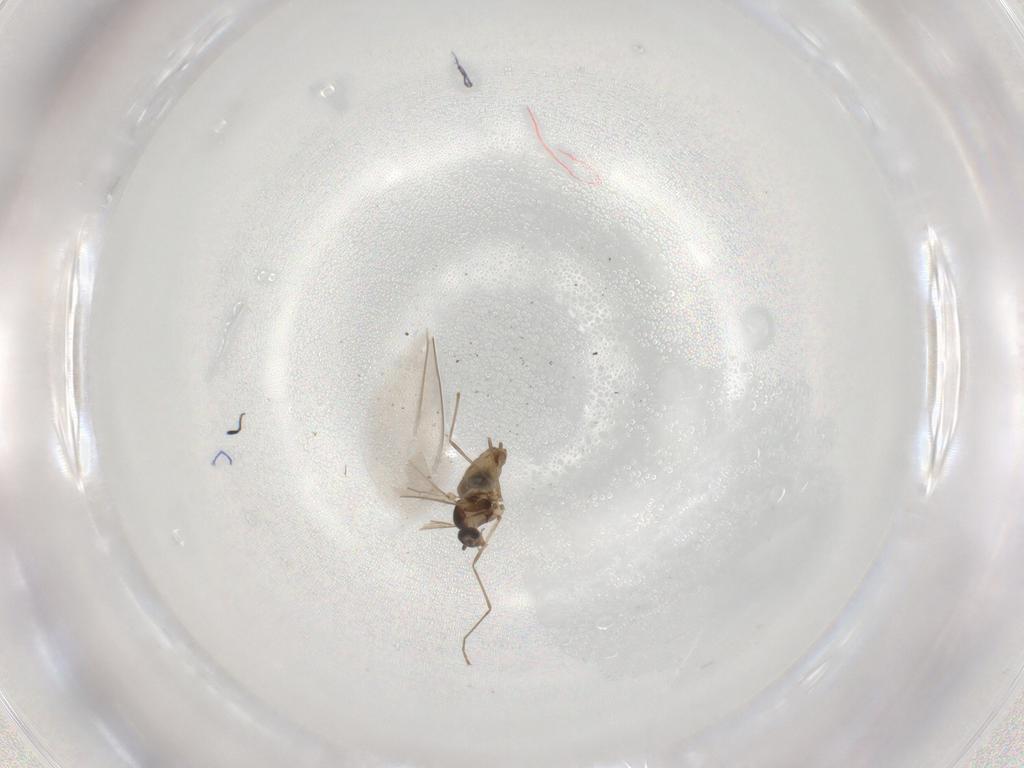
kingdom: Animalia
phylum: Arthropoda
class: Insecta
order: Diptera
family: Cecidomyiidae
